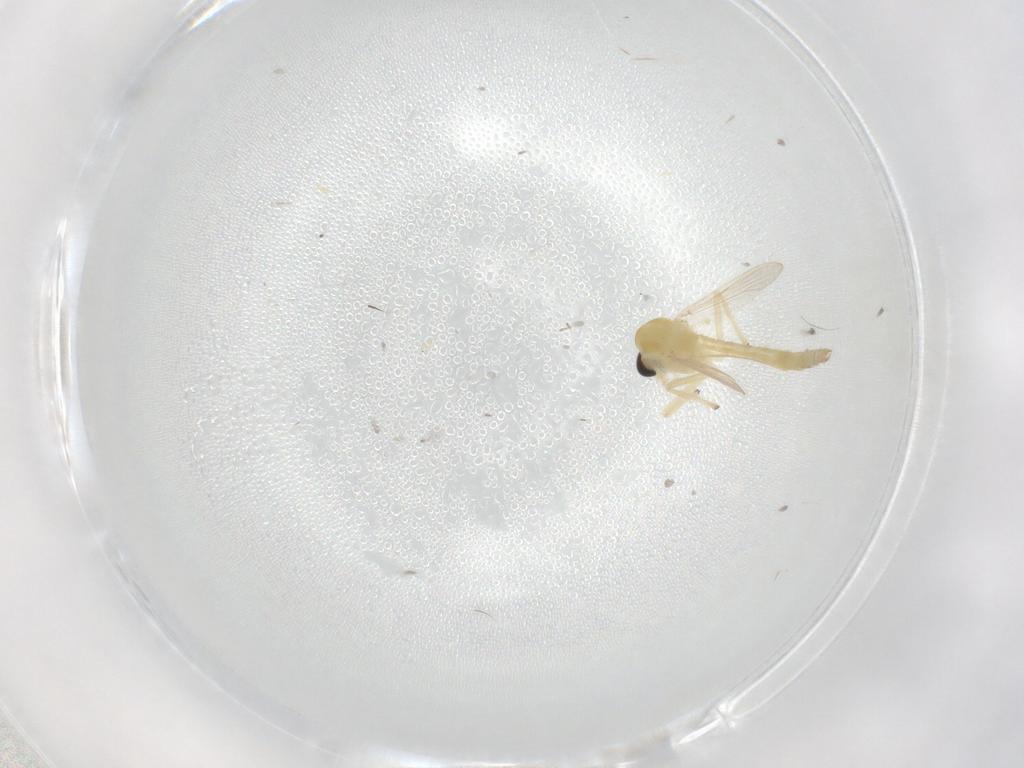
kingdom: Animalia
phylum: Arthropoda
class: Insecta
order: Diptera
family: Chironomidae
